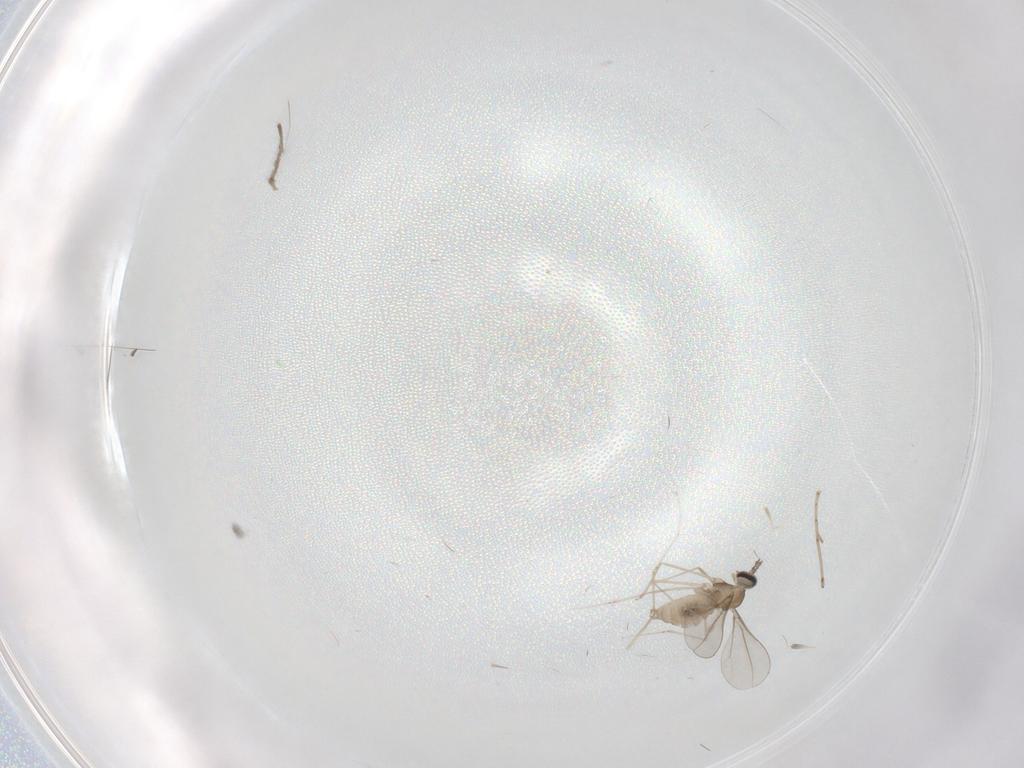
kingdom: Animalia
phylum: Arthropoda
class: Insecta
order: Diptera
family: Psychodidae
